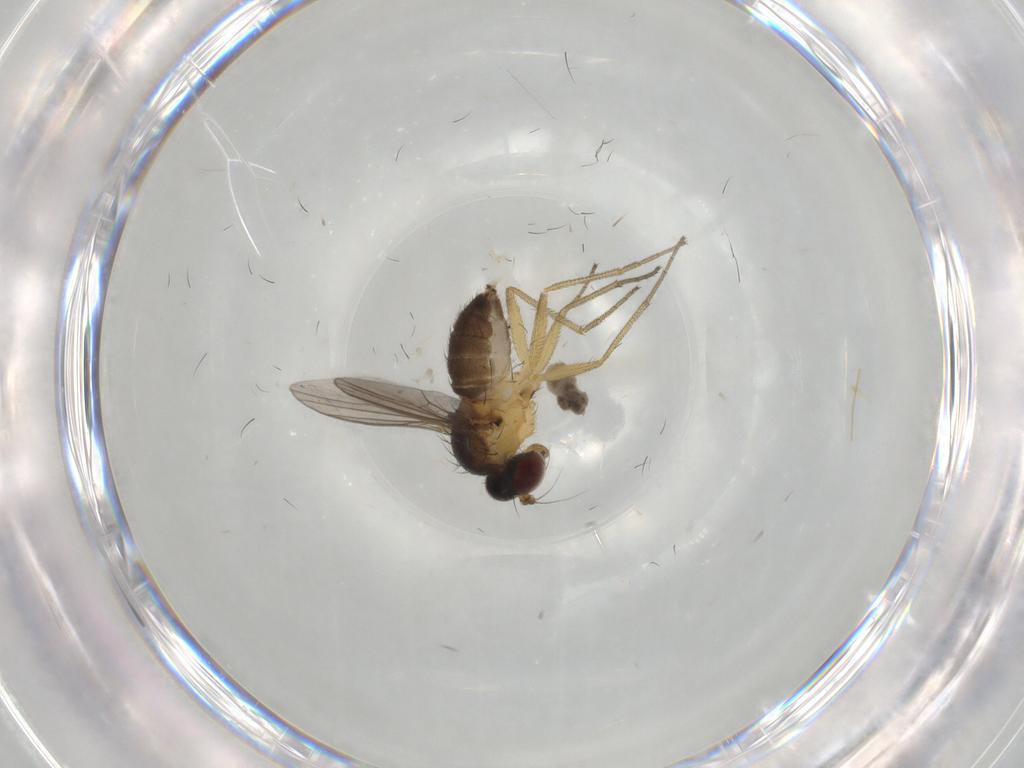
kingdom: Animalia
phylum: Arthropoda
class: Insecta
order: Diptera
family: Dolichopodidae
